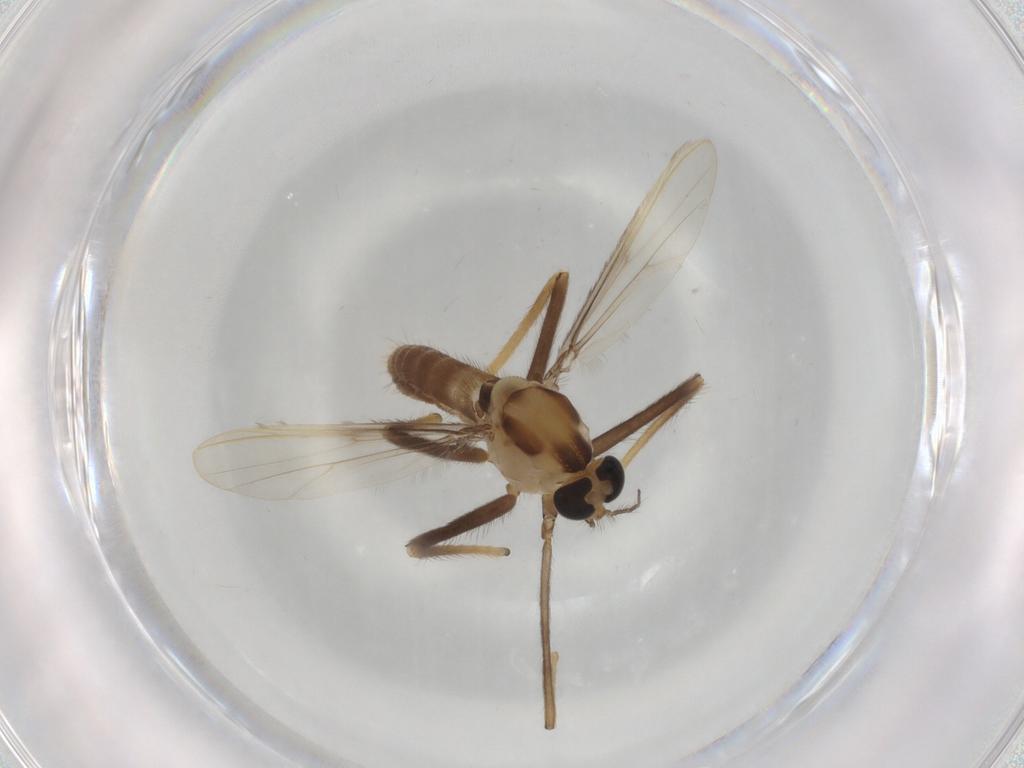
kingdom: Animalia
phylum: Arthropoda
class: Insecta
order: Diptera
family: Chironomidae
